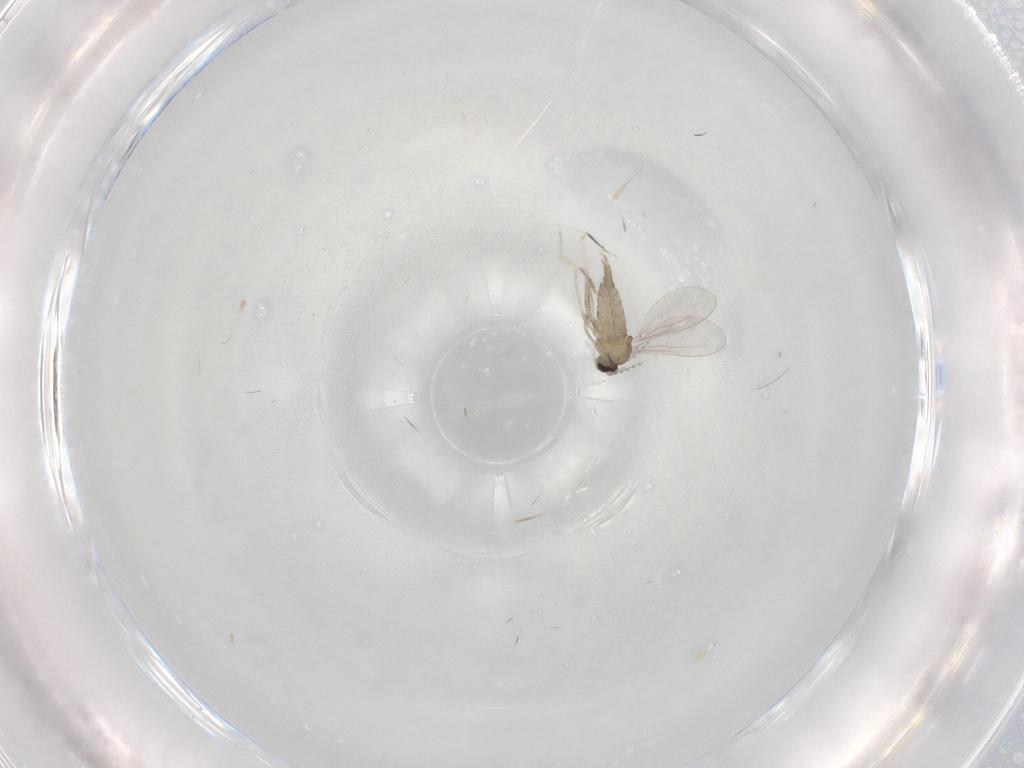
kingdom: Animalia
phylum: Arthropoda
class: Insecta
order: Diptera
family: Cecidomyiidae
